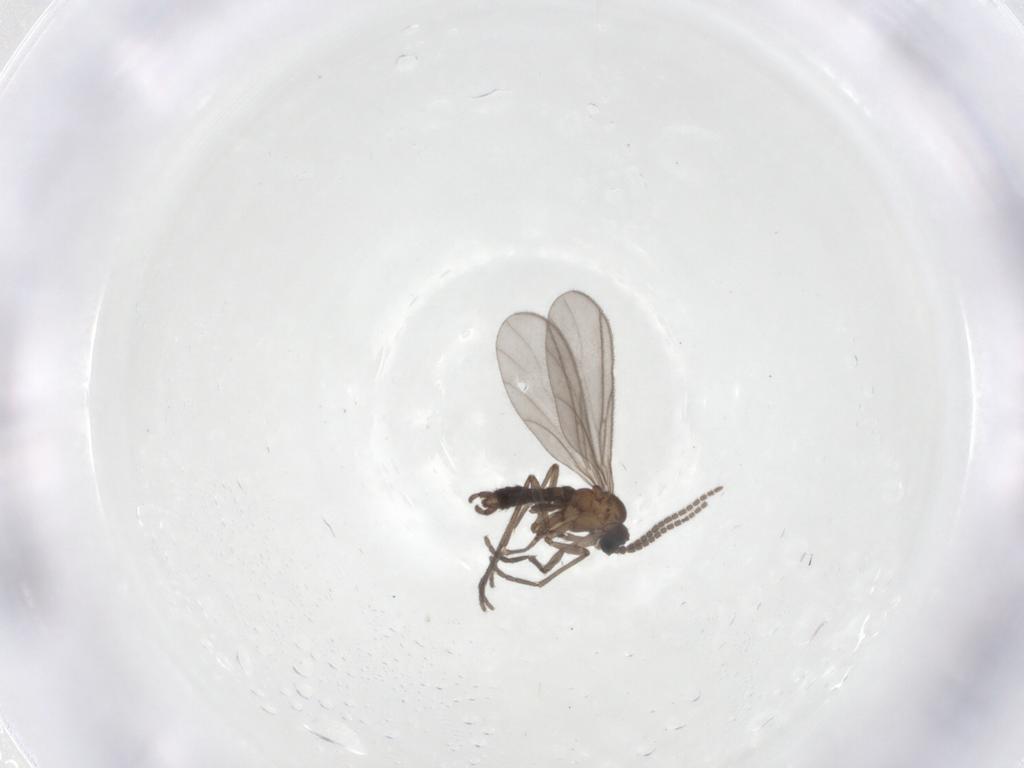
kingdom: Animalia
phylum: Arthropoda
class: Insecta
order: Diptera
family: Sciaridae
